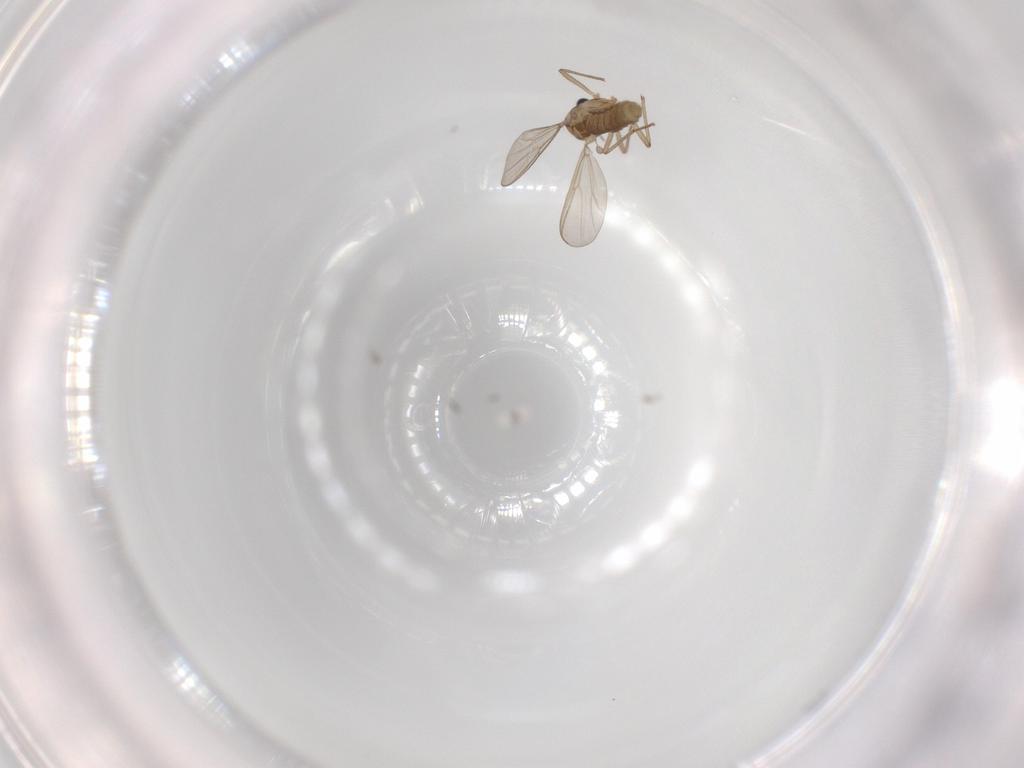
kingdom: Animalia
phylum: Arthropoda
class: Insecta
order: Diptera
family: Chironomidae
